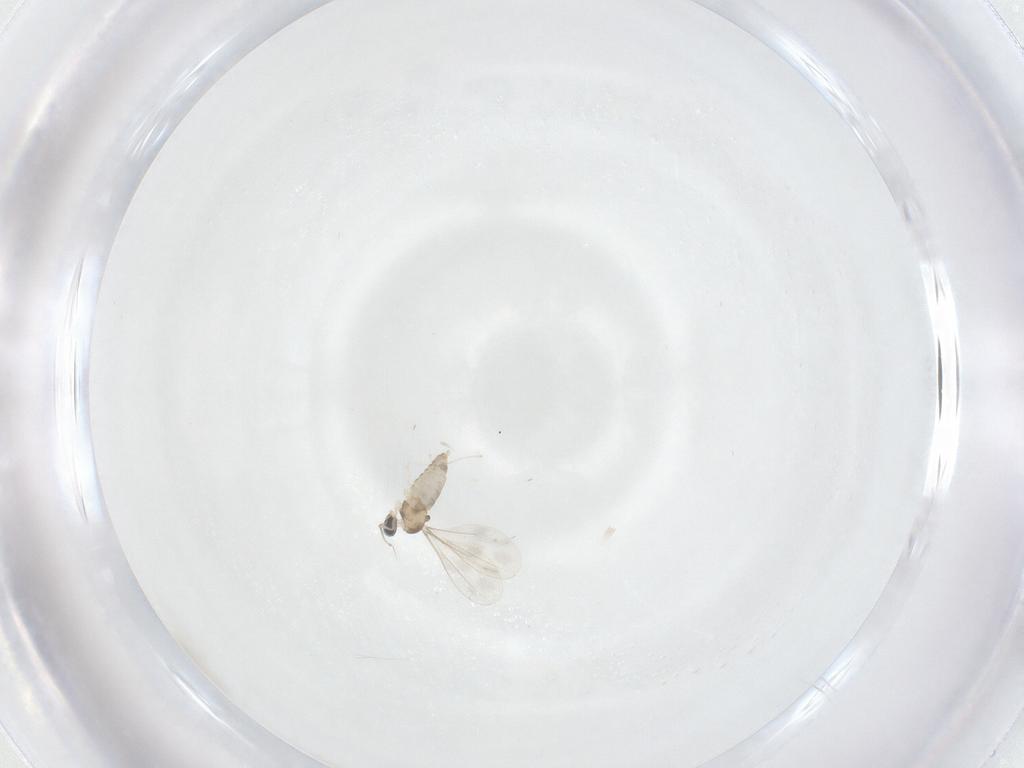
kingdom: Animalia
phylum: Arthropoda
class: Insecta
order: Diptera
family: Cecidomyiidae
